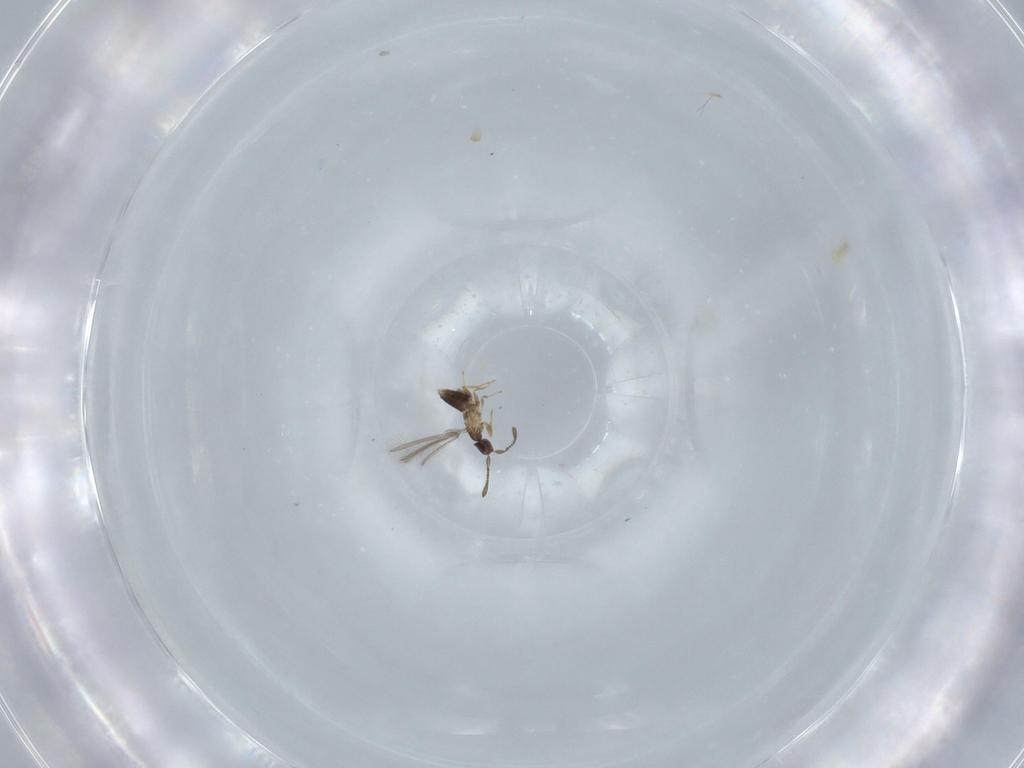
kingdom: Animalia
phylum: Arthropoda
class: Insecta
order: Hymenoptera
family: Mymaridae
